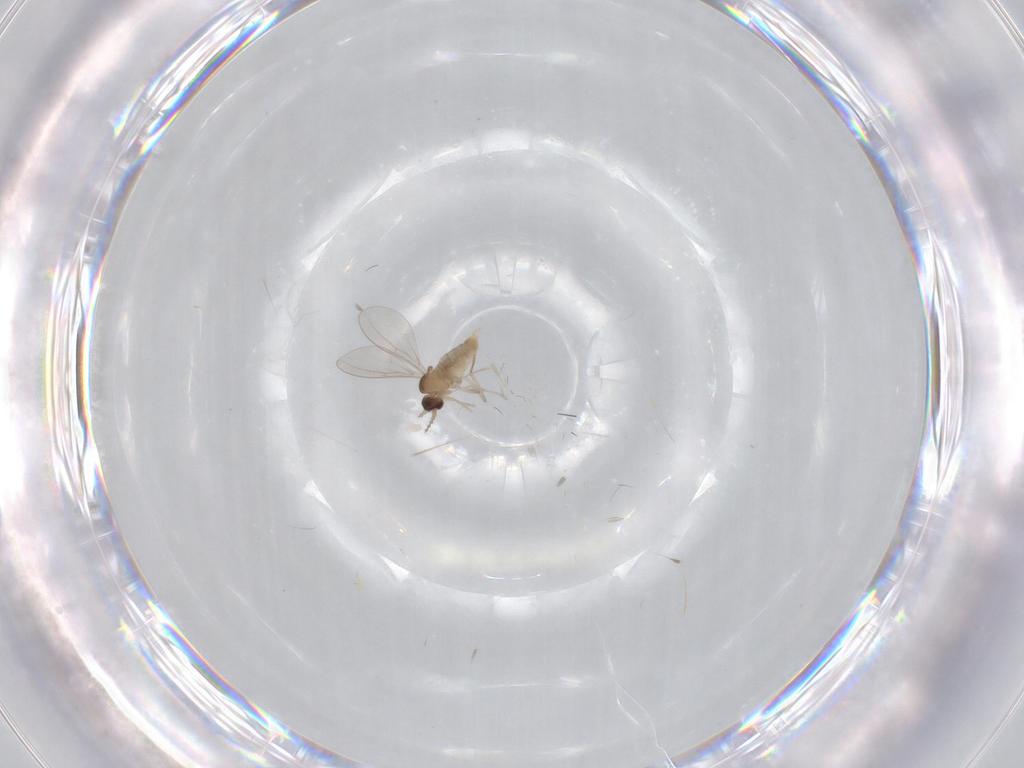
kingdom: Animalia
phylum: Arthropoda
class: Insecta
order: Diptera
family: Cecidomyiidae
